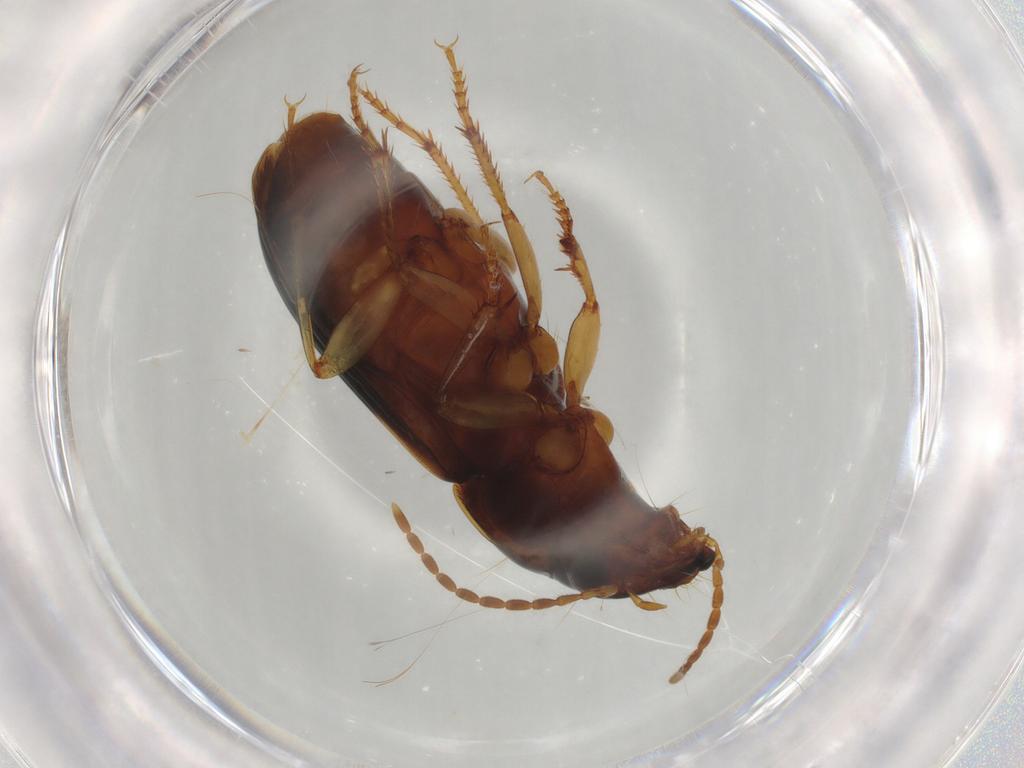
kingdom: Animalia
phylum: Arthropoda
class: Insecta
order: Coleoptera
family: Carabidae
